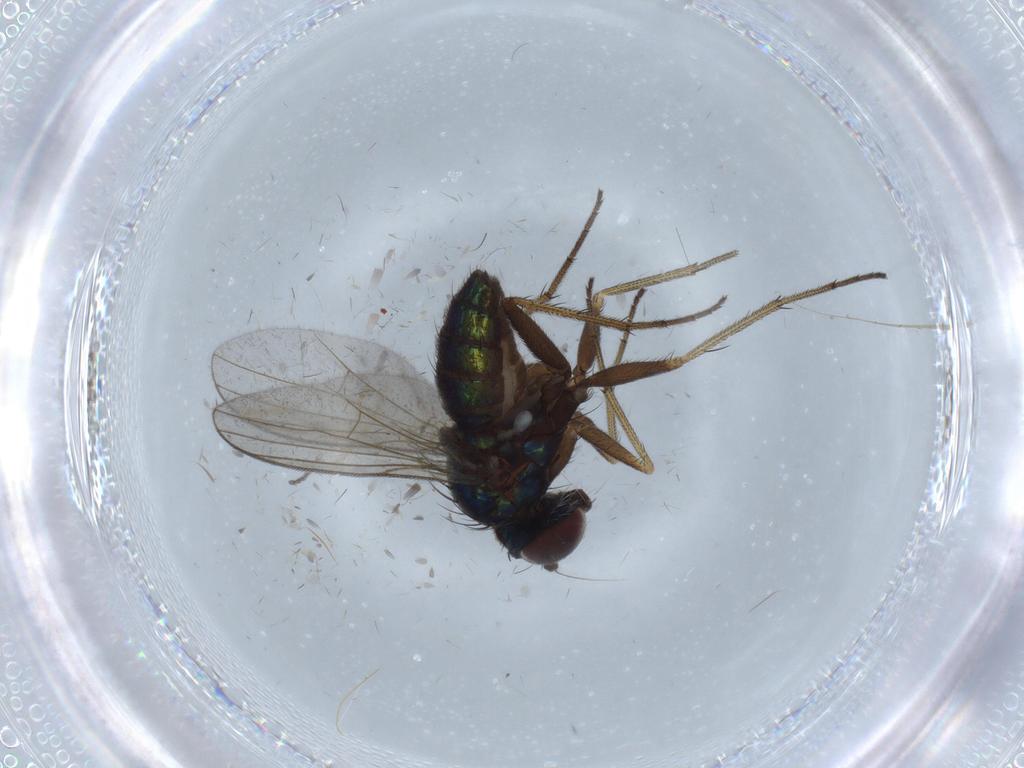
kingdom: Animalia
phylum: Arthropoda
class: Insecta
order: Diptera
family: Dolichopodidae
